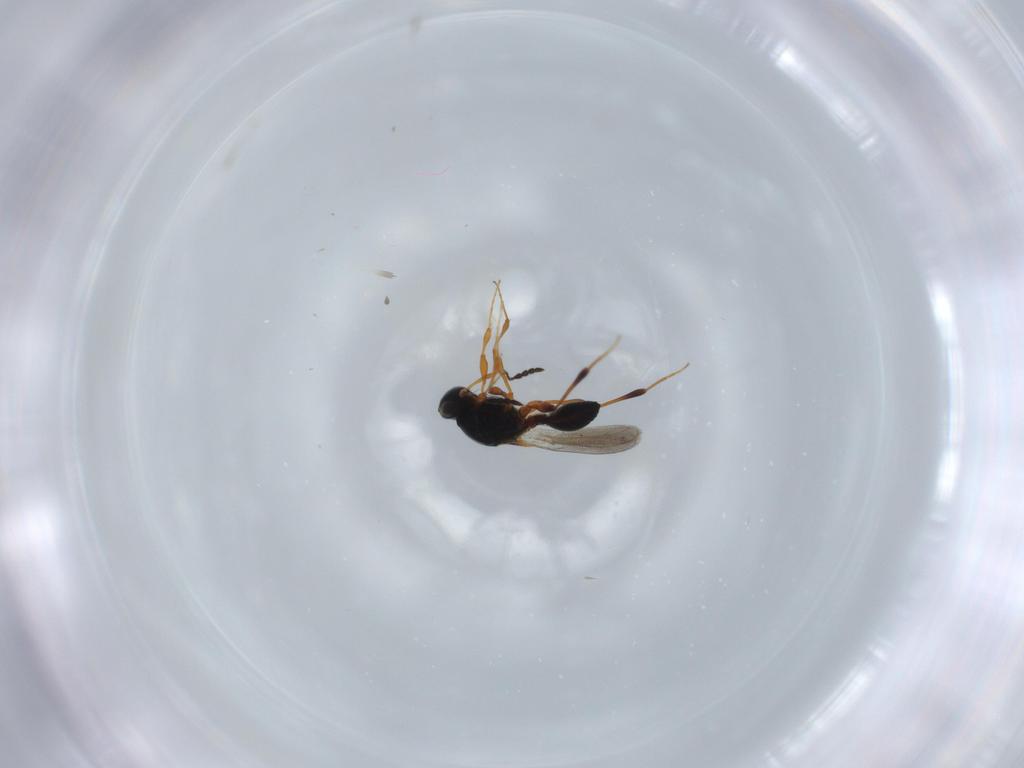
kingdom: Animalia
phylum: Arthropoda
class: Insecta
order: Hymenoptera
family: Platygastridae
